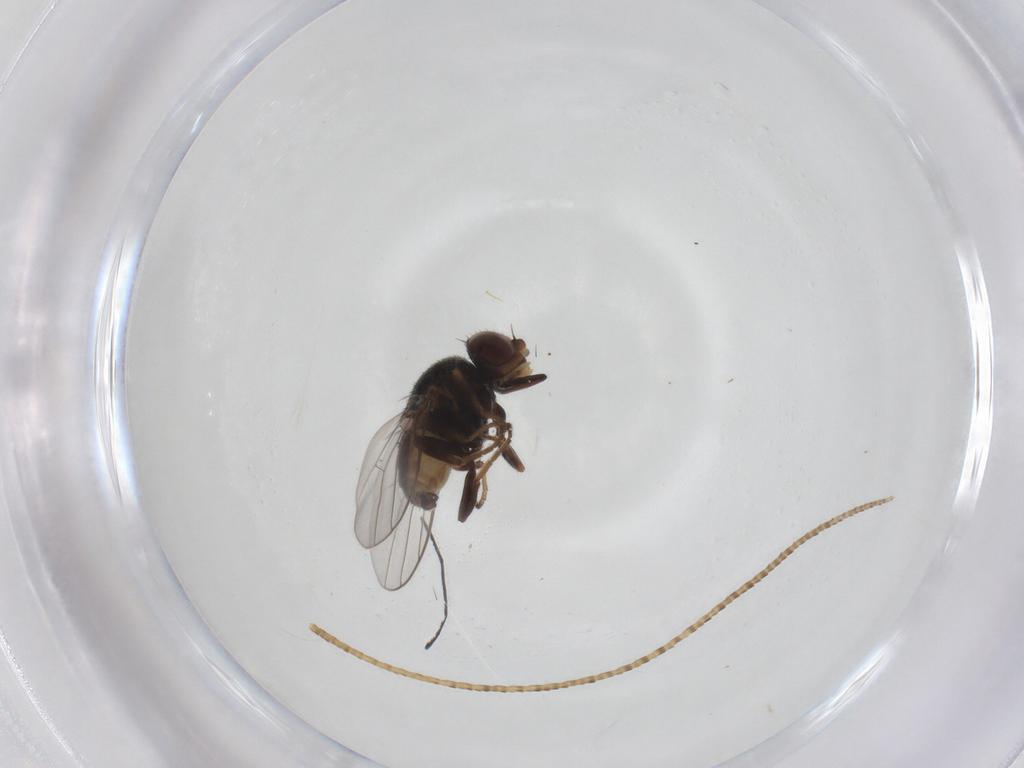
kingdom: Animalia
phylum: Arthropoda
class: Insecta
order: Diptera
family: Chloropidae
